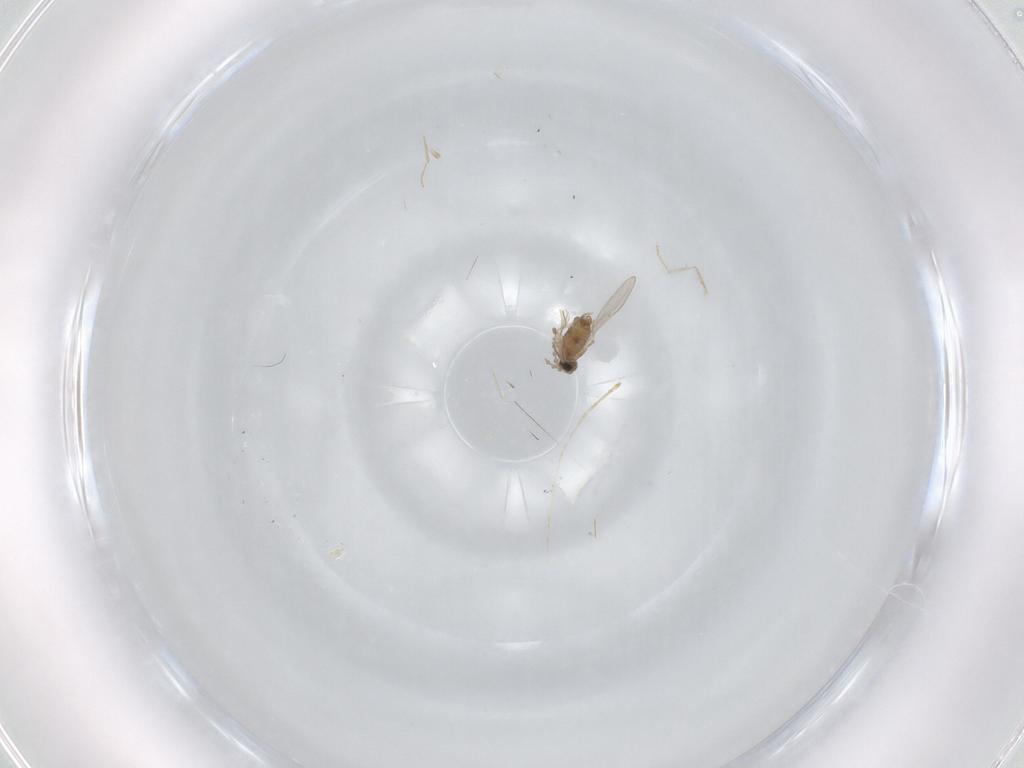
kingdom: Animalia
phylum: Arthropoda
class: Insecta
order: Diptera
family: Cecidomyiidae
